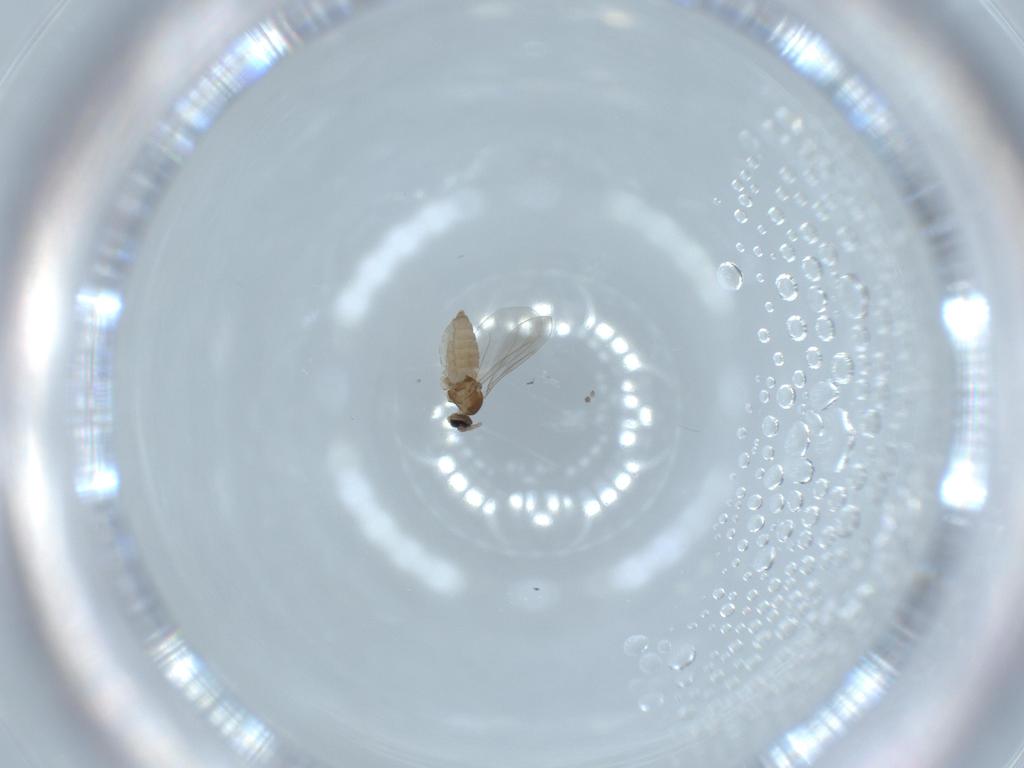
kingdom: Animalia
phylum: Arthropoda
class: Insecta
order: Diptera
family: Cecidomyiidae
